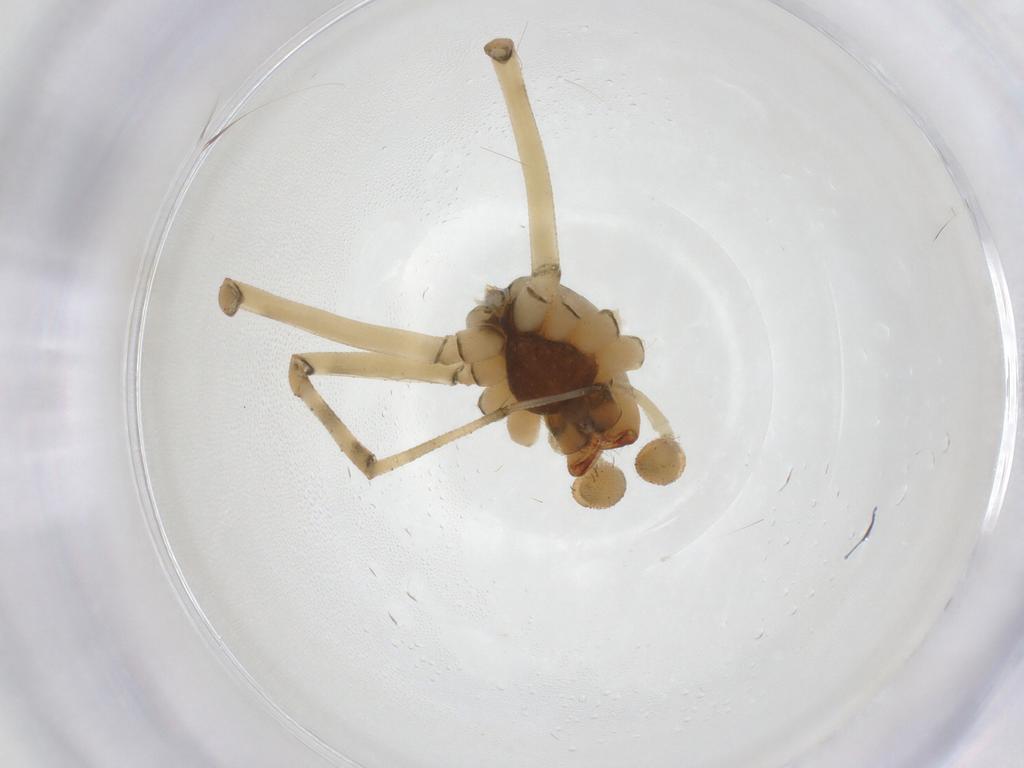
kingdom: Animalia
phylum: Arthropoda
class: Arachnida
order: Araneae
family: Linyphiidae
